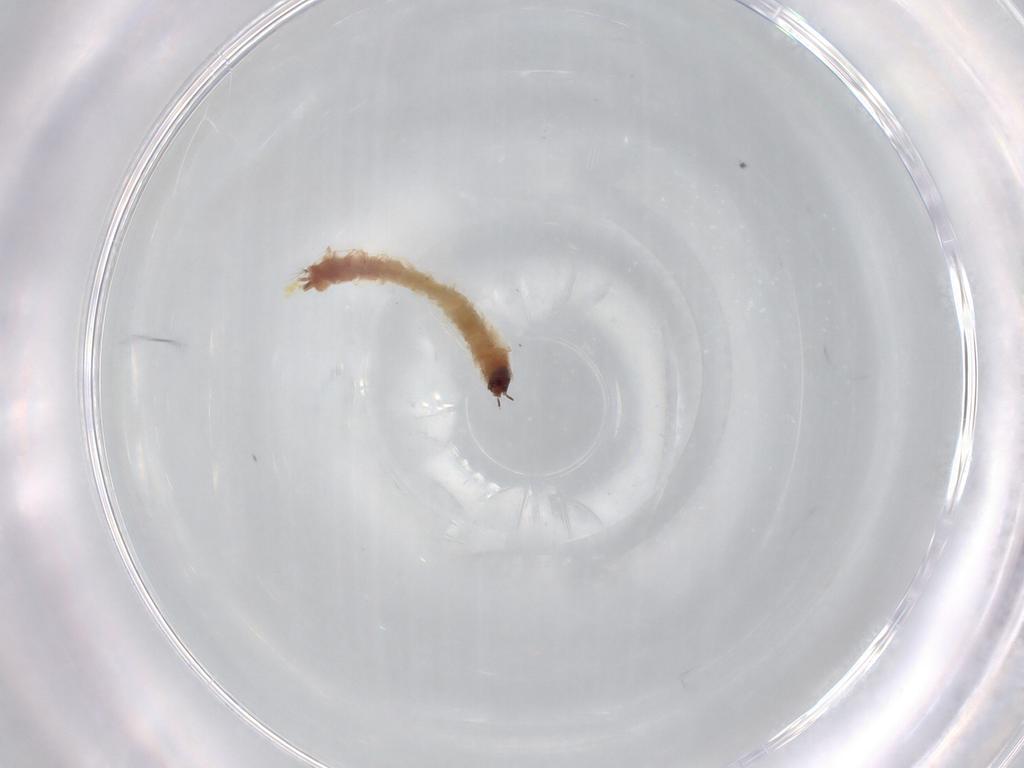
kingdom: Animalia
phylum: Arthropoda
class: Insecta
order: Diptera
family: Chironomidae
